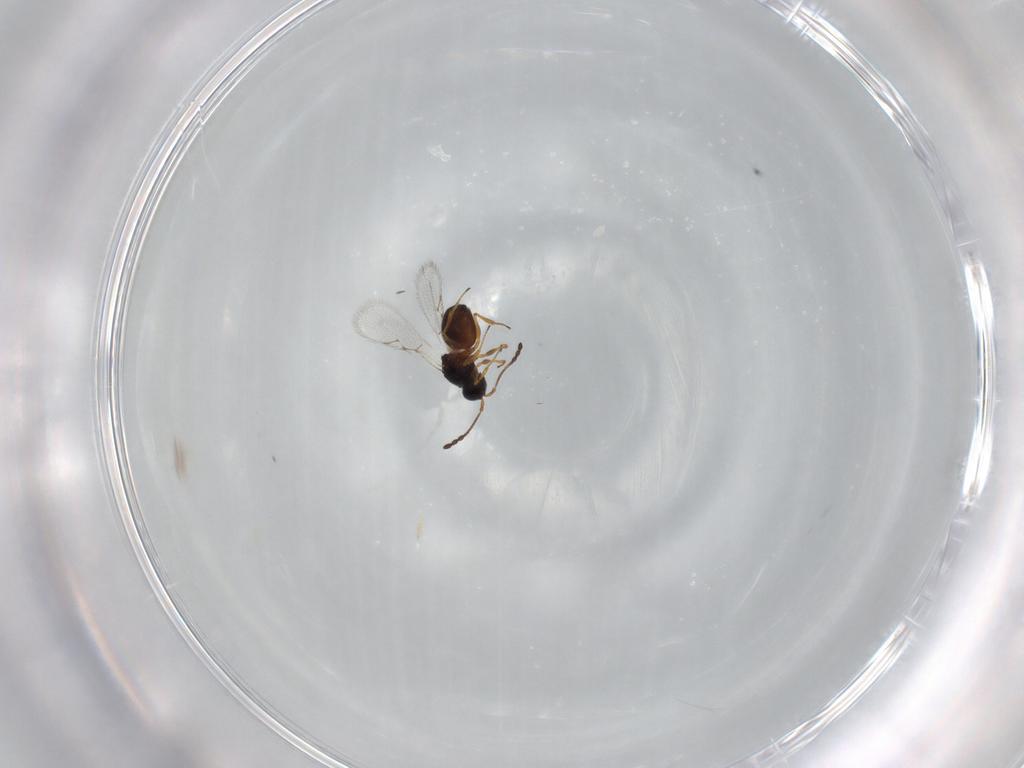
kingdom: Animalia
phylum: Arthropoda
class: Insecta
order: Hymenoptera
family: Figitidae
